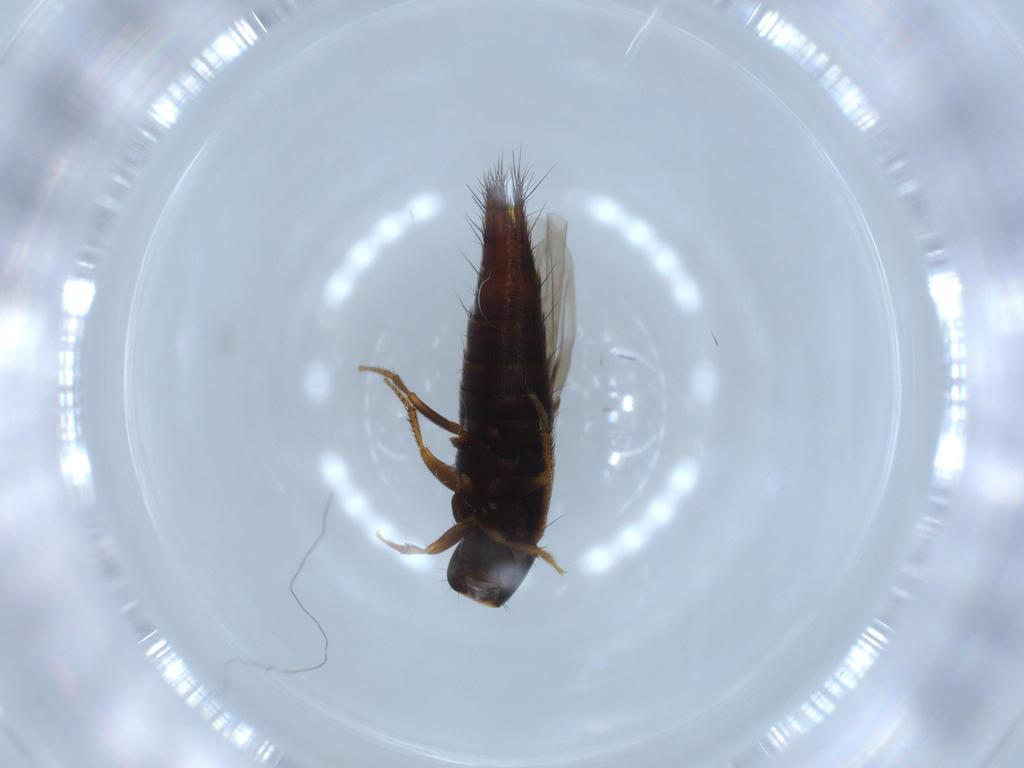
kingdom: Animalia
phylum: Arthropoda
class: Insecta
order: Coleoptera
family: Staphylinidae
